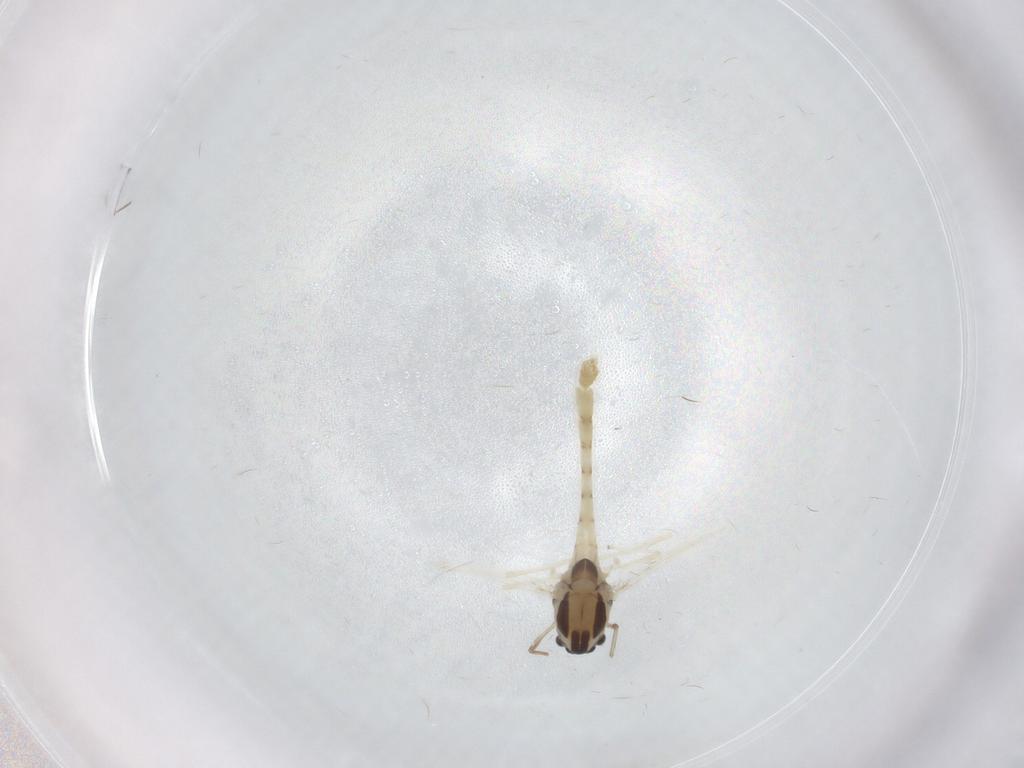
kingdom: Animalia
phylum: Arthropoda
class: Insecta
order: Diptera
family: Chironomidae
